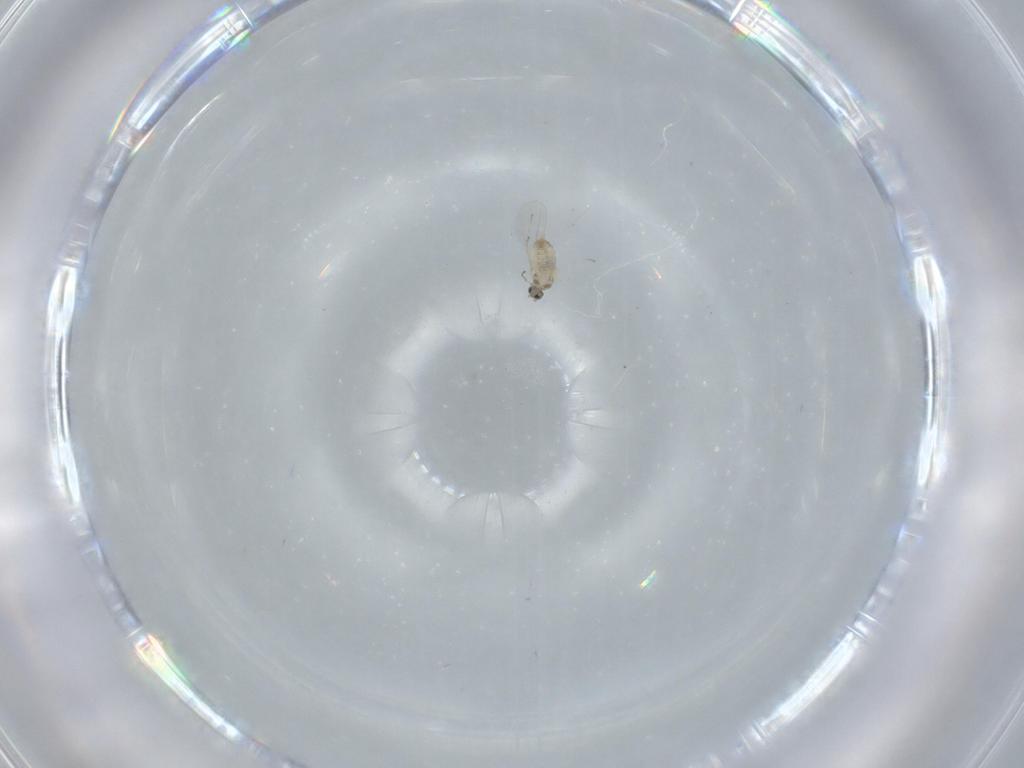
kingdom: Animalia
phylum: Arthropoda
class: Insecta
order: Diptera
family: Cecidomyiidae
